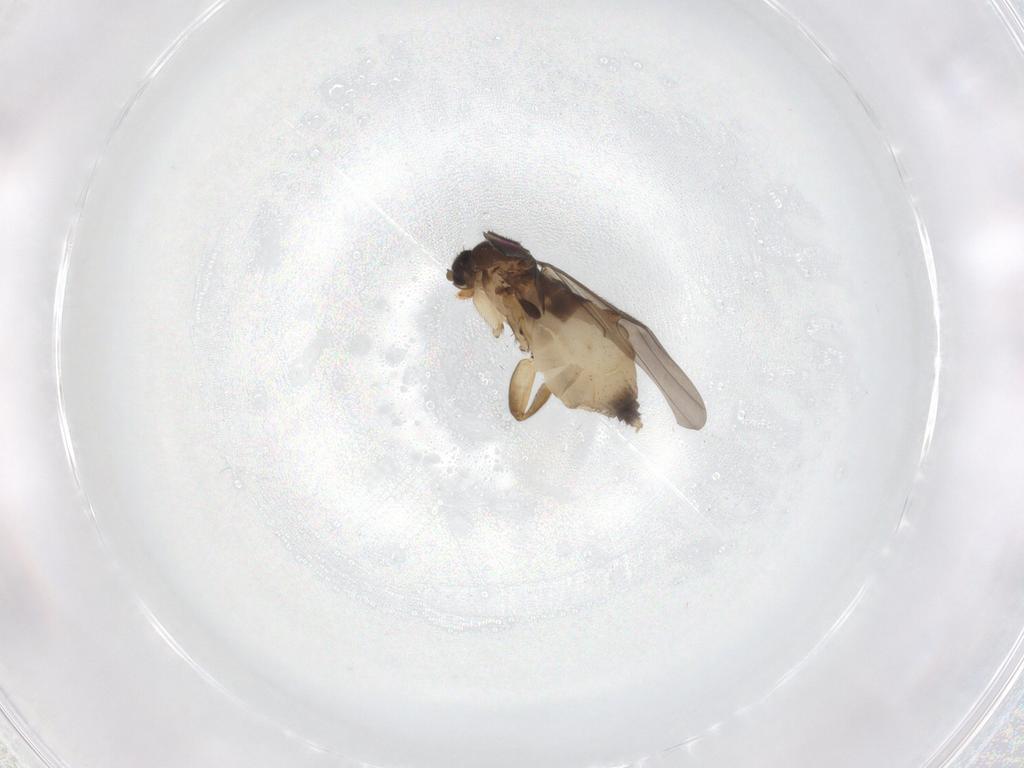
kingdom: Animalia
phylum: Arthropoda
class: Insecta
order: Diptera
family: Phoridae
